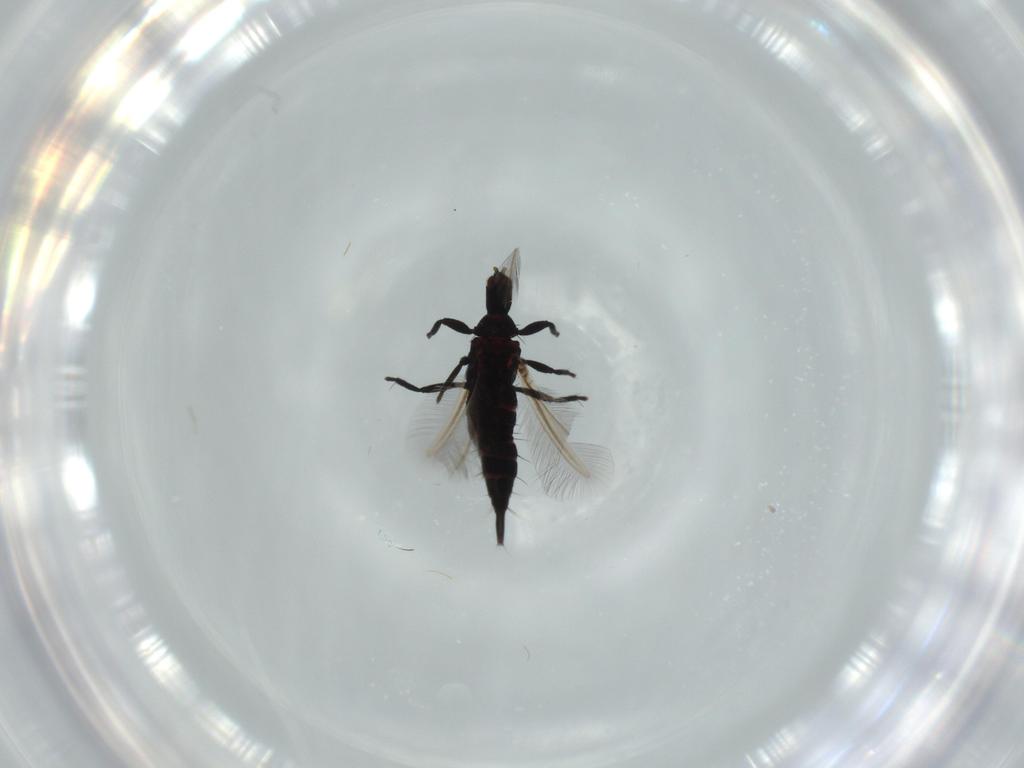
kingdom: Animalia
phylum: Arthropoda
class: Insecta
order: Thysanoptera
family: Phlaeothripidae
